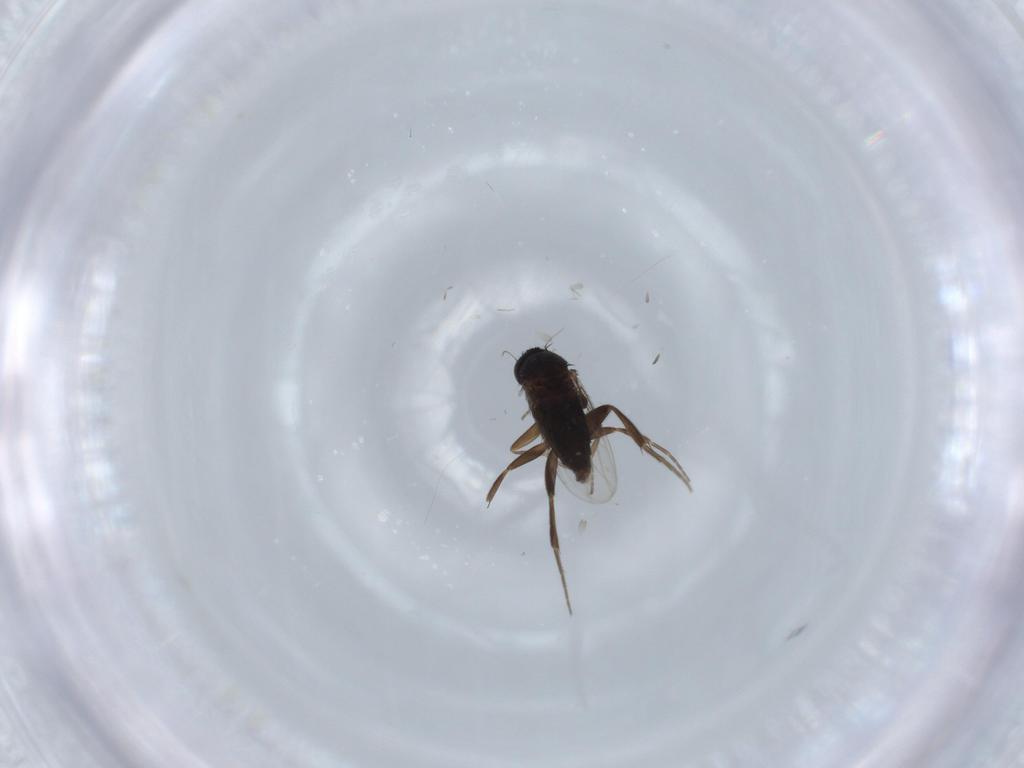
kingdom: Animalia
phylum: Arthropoda
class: Insecta
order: Diptera
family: Phoridae
